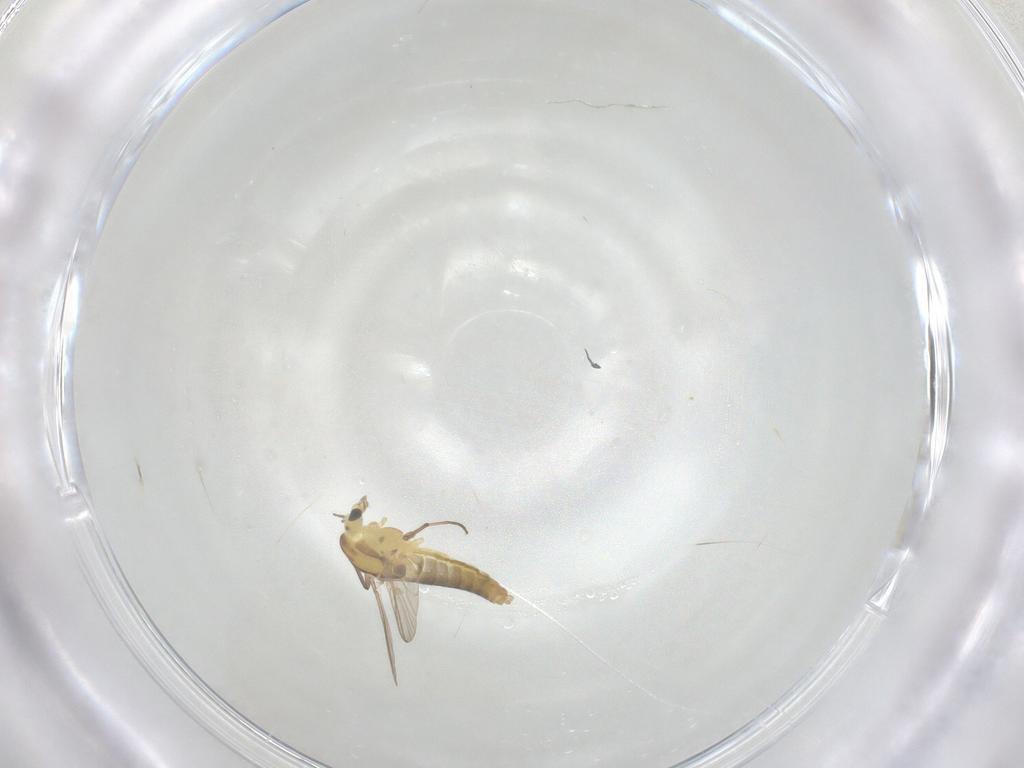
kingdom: Animalia
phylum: Arthropoda
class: Insecta
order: Diptera
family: Chironomidae
